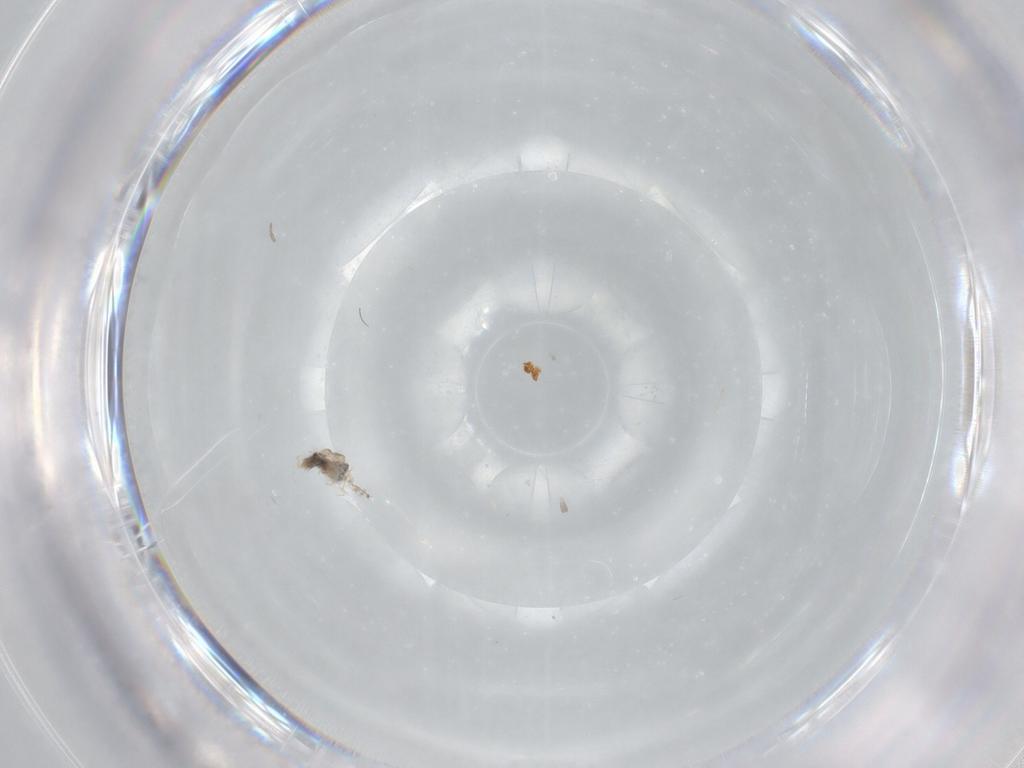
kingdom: Animalia
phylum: Arthropoda
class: Insecta
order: Diptera
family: Psychodidae
